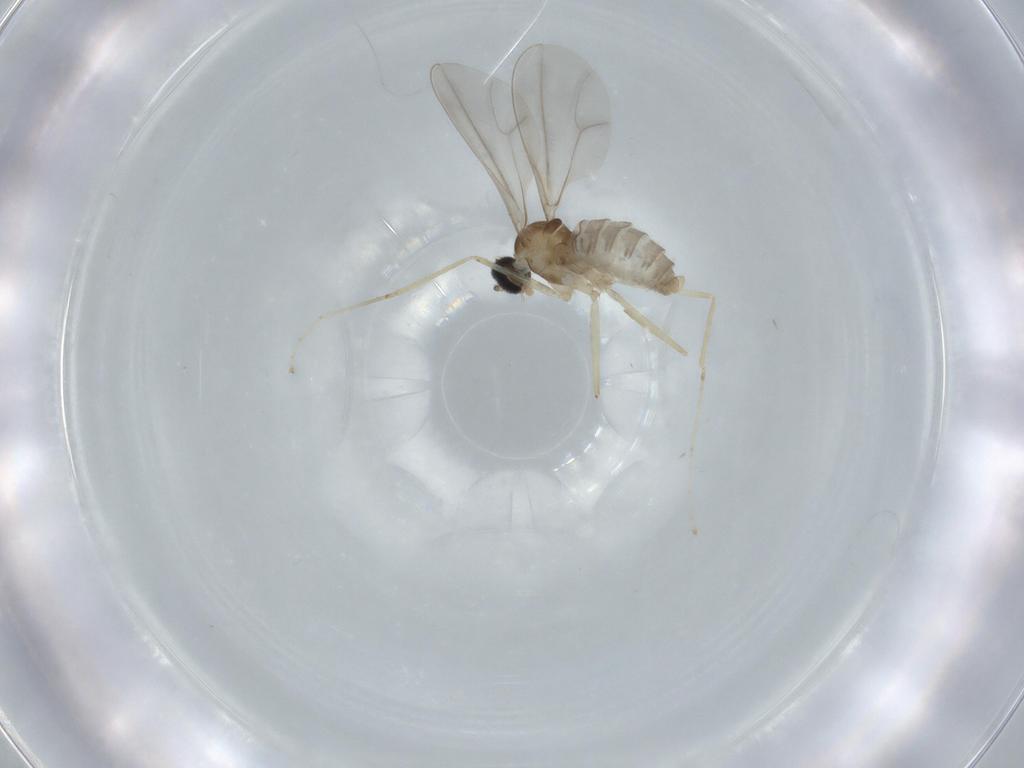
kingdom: Animalia
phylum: Arthropoda
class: Insecta
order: Diptera
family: Cecidomyiidae
